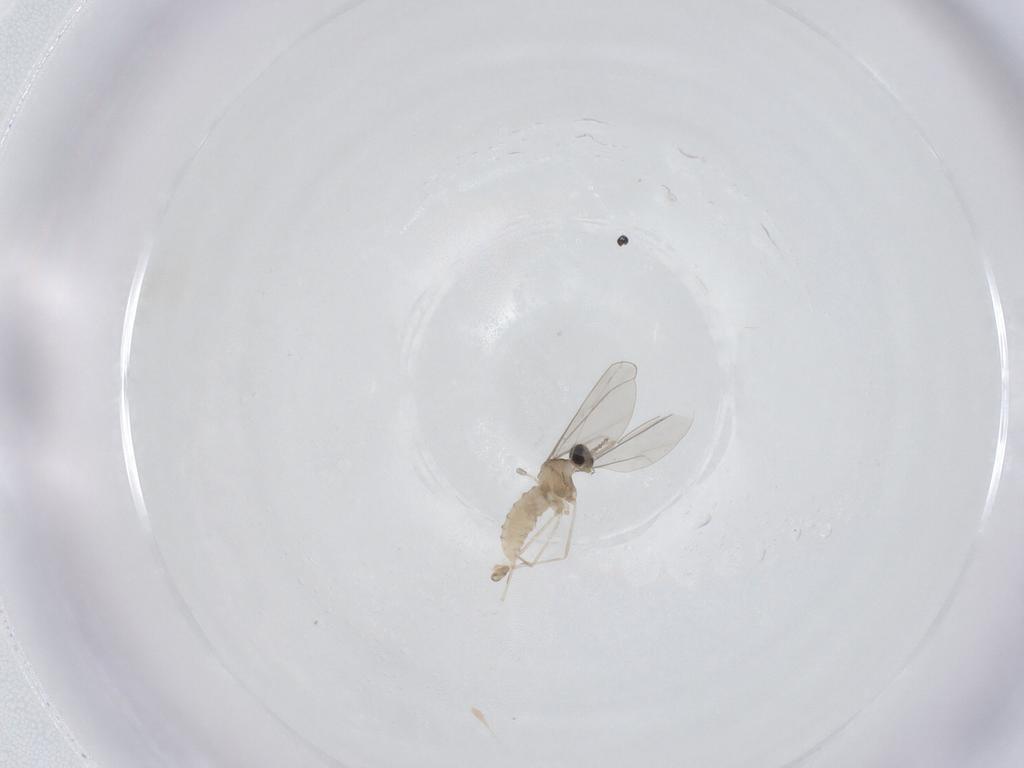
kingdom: Animalia
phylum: Arthropoda
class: Insecta
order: Diptera
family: Cecidomyiidae
